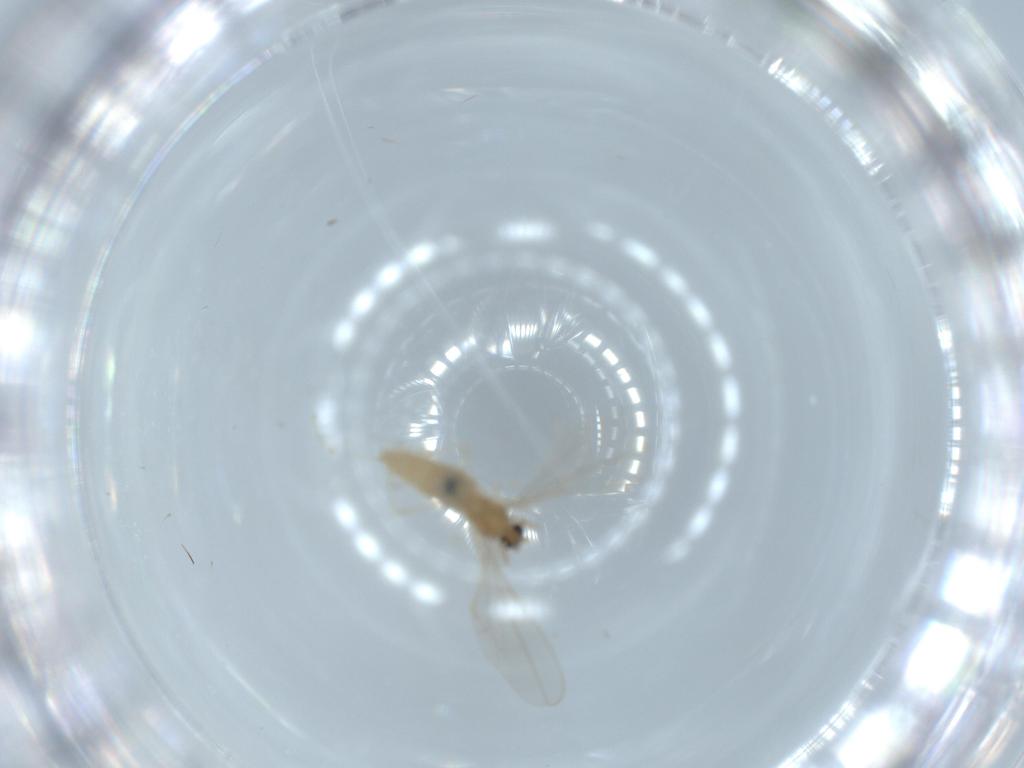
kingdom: Animalia
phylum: Arthropoda
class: Insecta
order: Diptera
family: Cecidomyiidae
